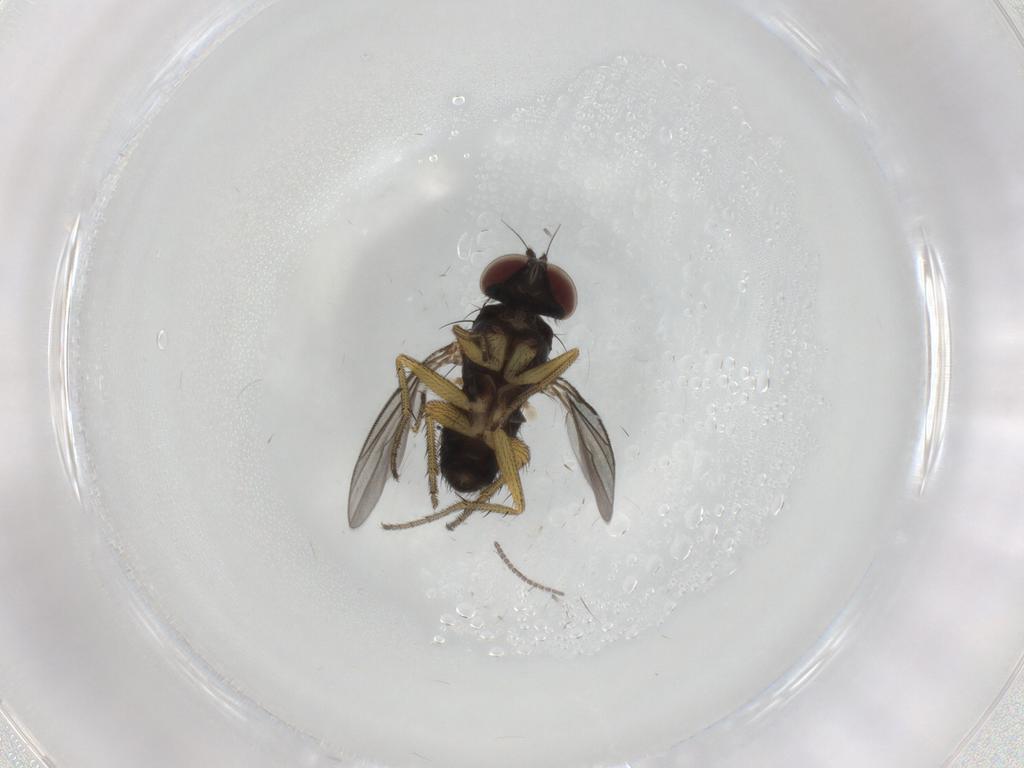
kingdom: Animalia
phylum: Arthropoda
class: Insecta
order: Diptera
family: Sciaridae
